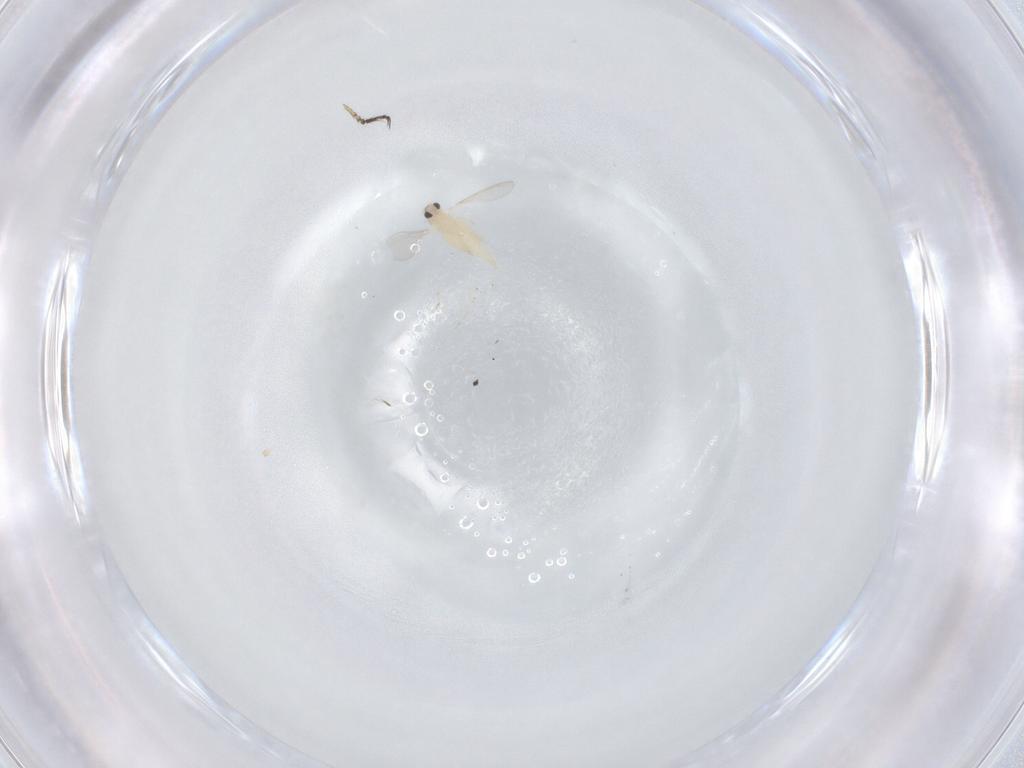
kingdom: Animalia
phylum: Arthropoda
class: Insecta
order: Diptera
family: Cecidomyiidae
